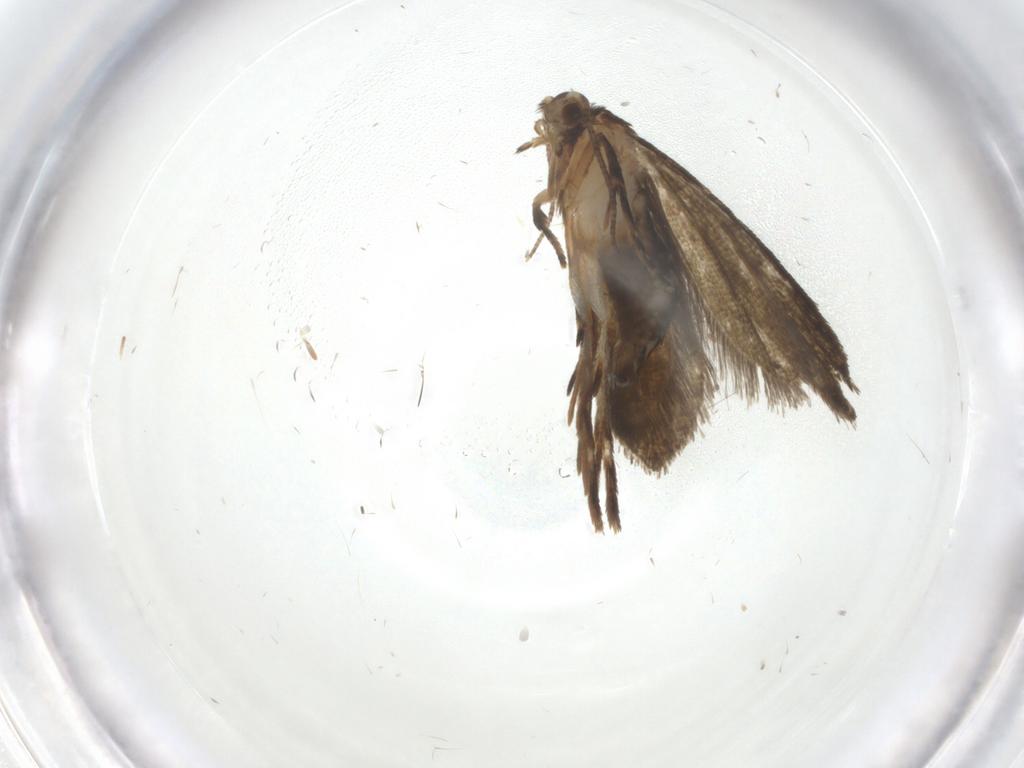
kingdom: Animalia
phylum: Arthropoda
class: Insecta
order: Lepidoptera
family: Crambidae
